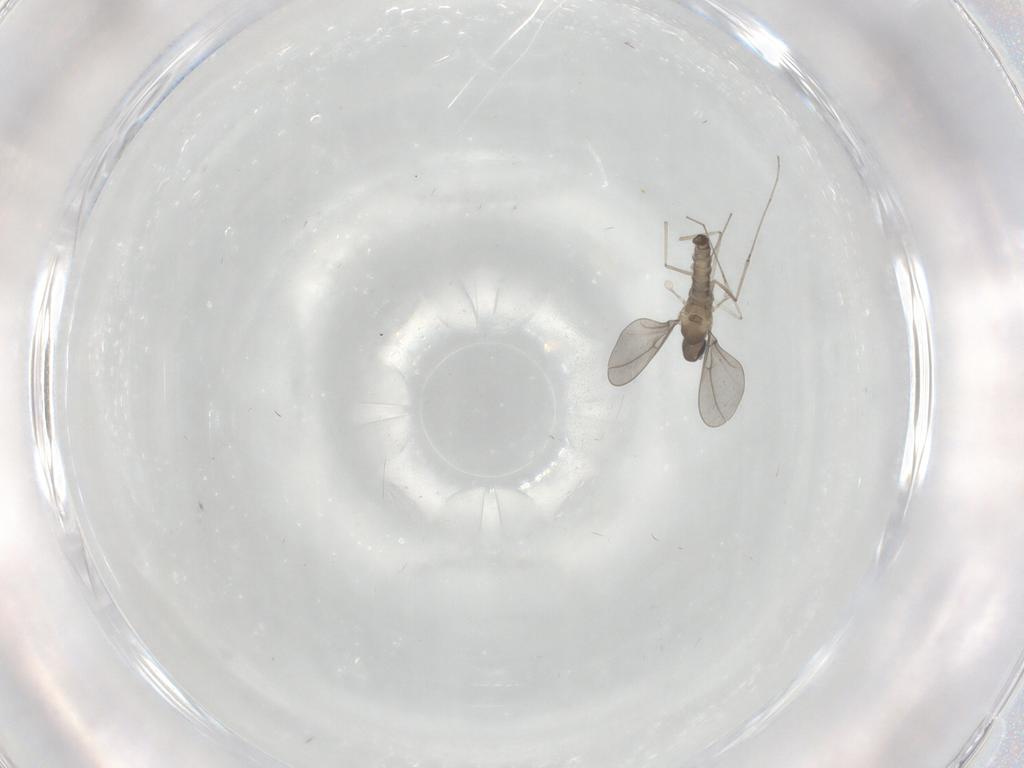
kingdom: Animalia
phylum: Arthropoda
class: Insecta
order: Diptera
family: Cecidomyiidae
